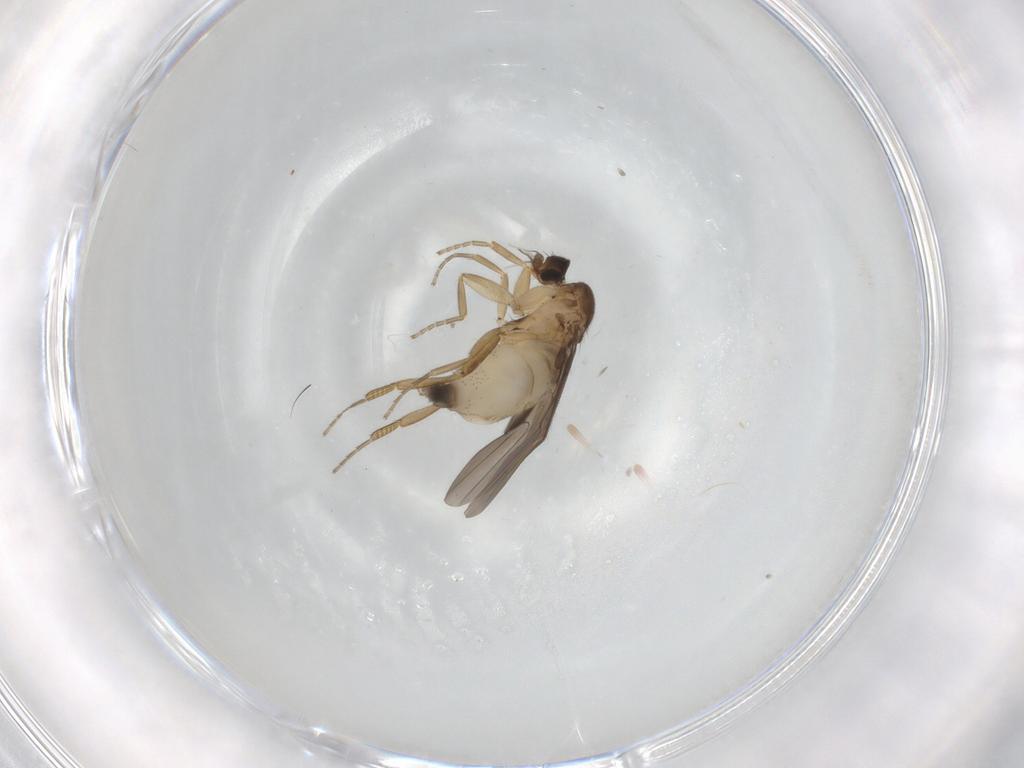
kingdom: Animalia
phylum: Arthropoda
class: Insecta
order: Diptera
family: Phoridae
